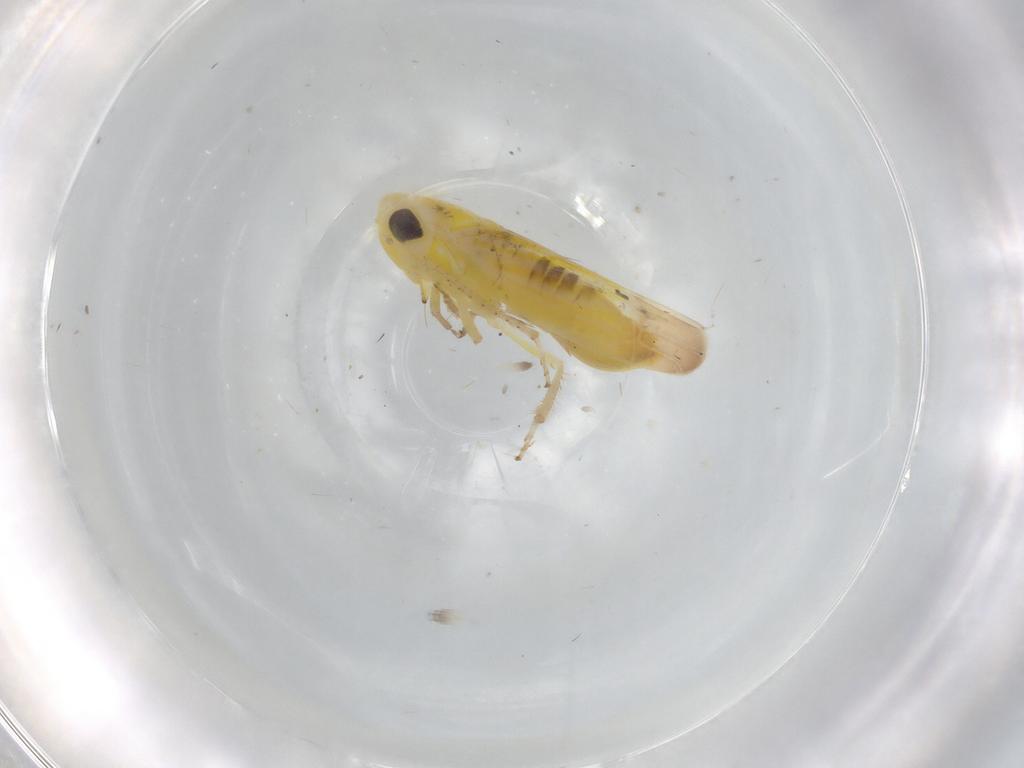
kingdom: Animalia
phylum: Arthropoda
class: Insecta
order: Hemiptera
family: Cicadellidae
